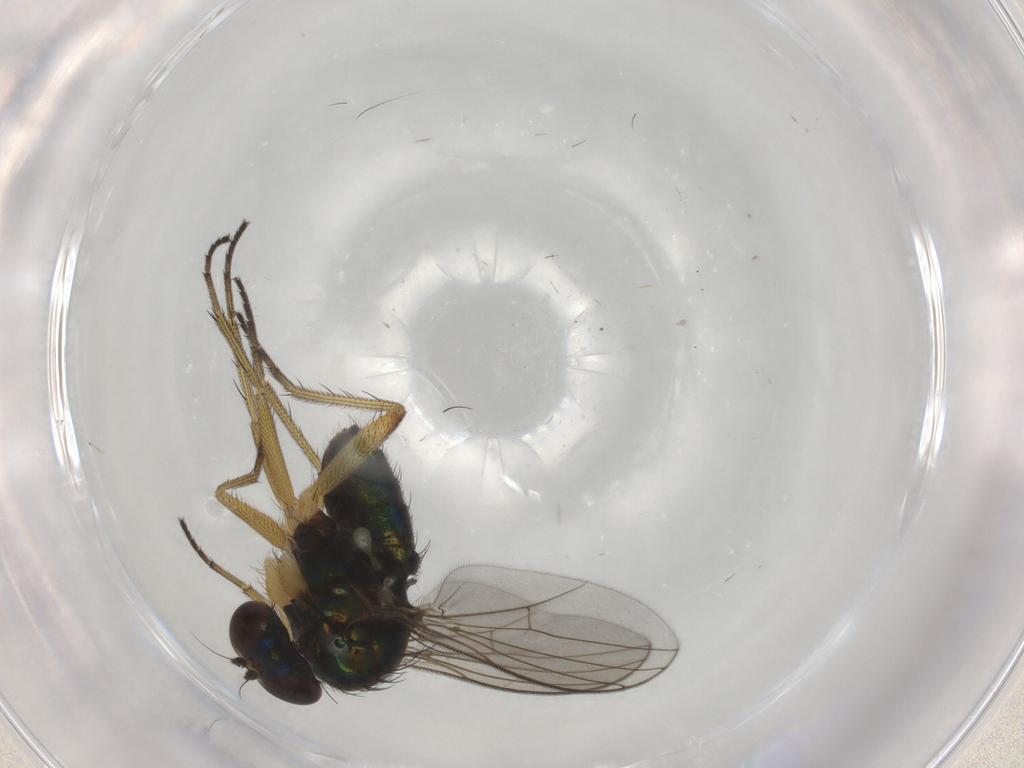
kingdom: Animalia
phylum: Arthropoda
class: Insecta
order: Diptera
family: Dolichopodidae
